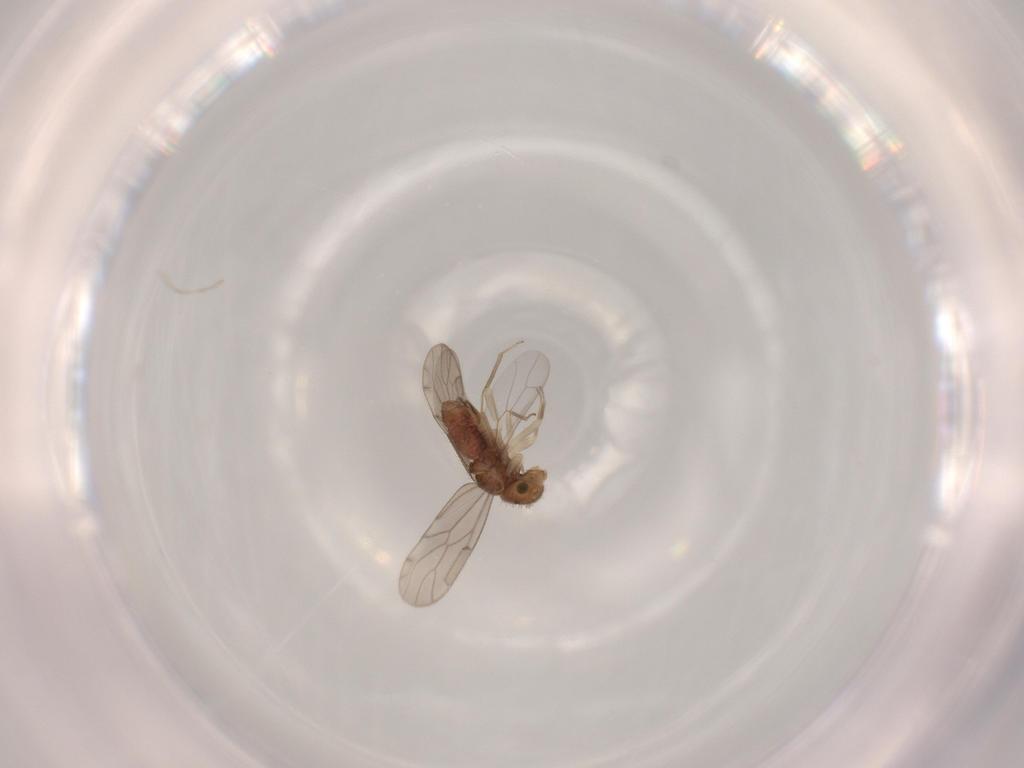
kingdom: Animalia
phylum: Arthropoda
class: Insecta
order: Psocodea
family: Ectopsocidae
